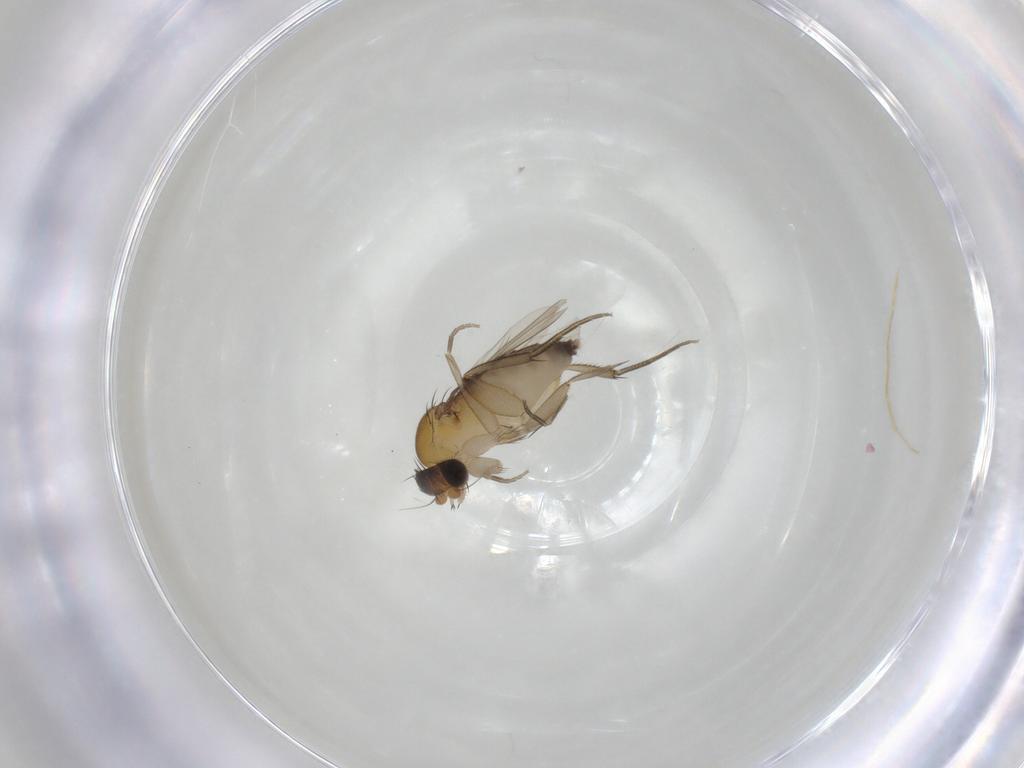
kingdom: Animalia
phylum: Arthropoda
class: Insecta
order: Diptera
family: Phoridae
